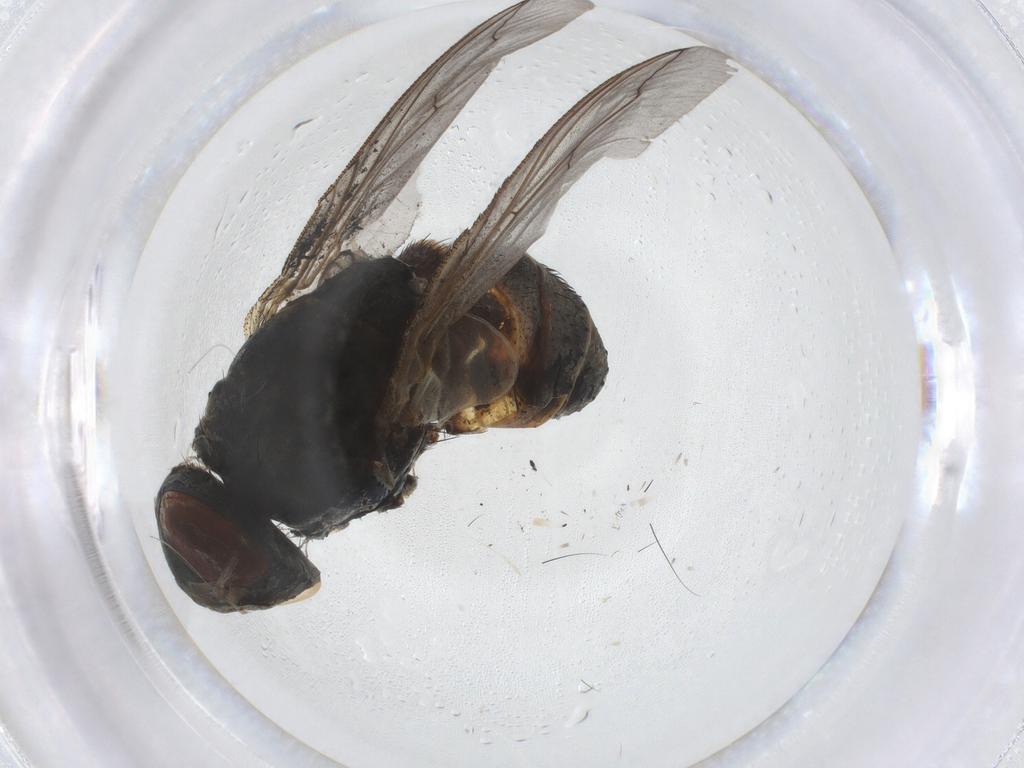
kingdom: Animalia
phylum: Arthropoda
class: Insecta
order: Diptera
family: Sarcophagidae
